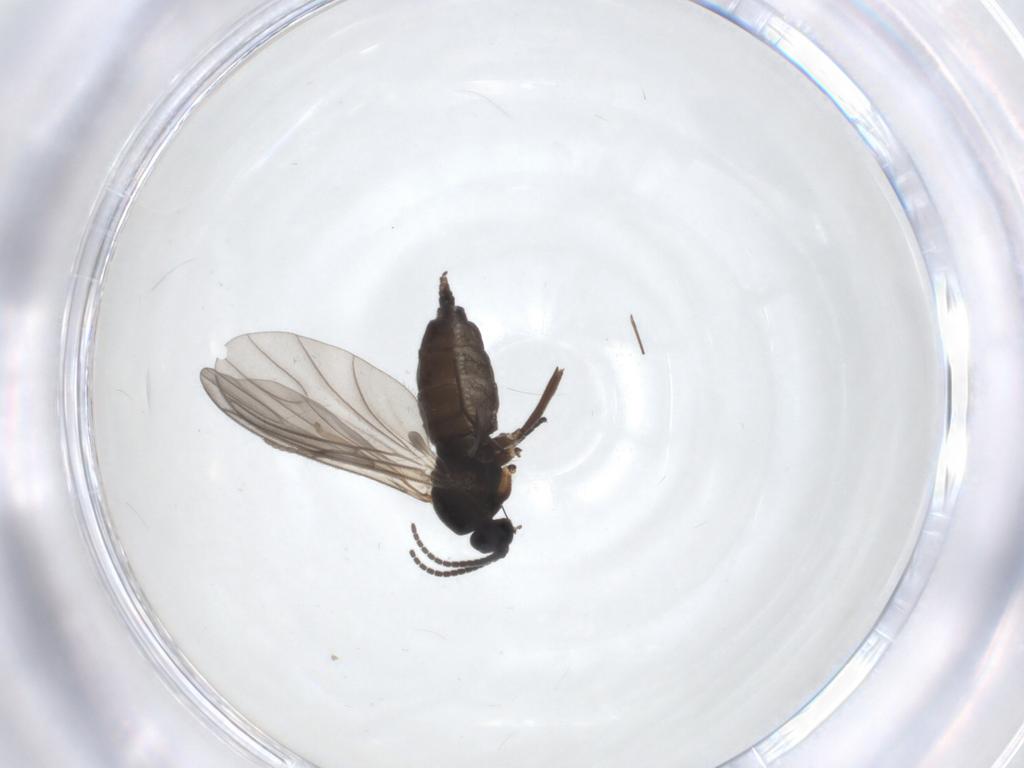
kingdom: Animalia
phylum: Arthropoda
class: Insecta
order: Diptera
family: Sciaridae
